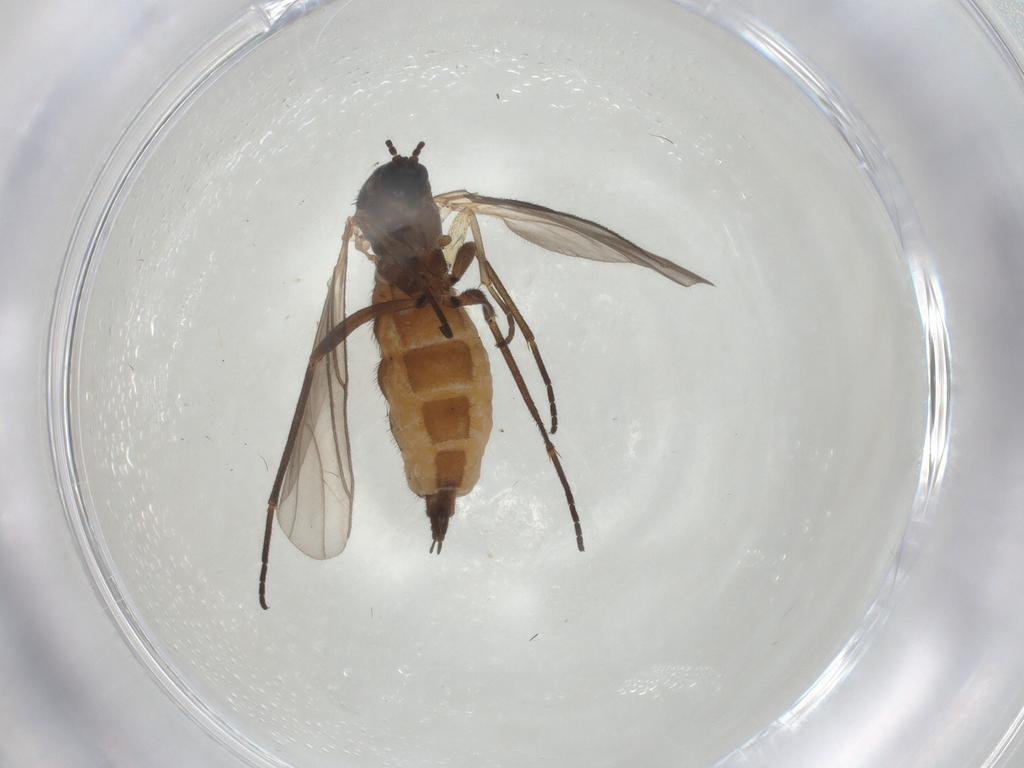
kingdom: Animalia
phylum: Arthropoda
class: Insecta
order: Diptera
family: Sciaridae
